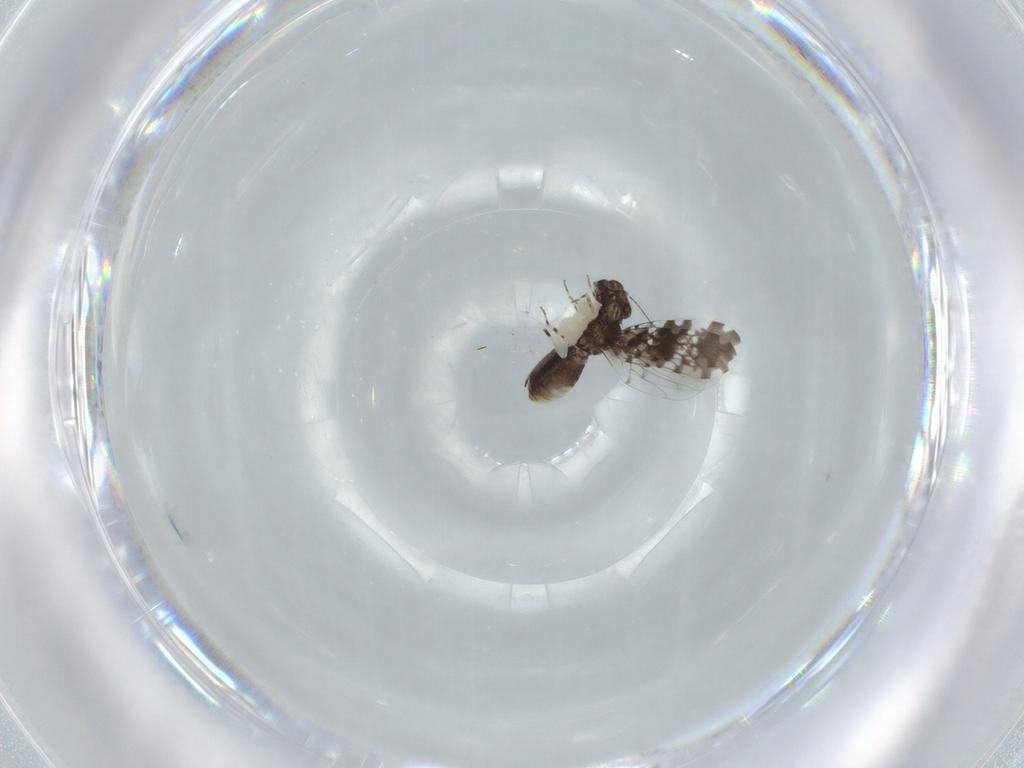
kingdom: Animalia
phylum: Arthropoda
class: Insecta
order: Psocodea
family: Psoquillidae
